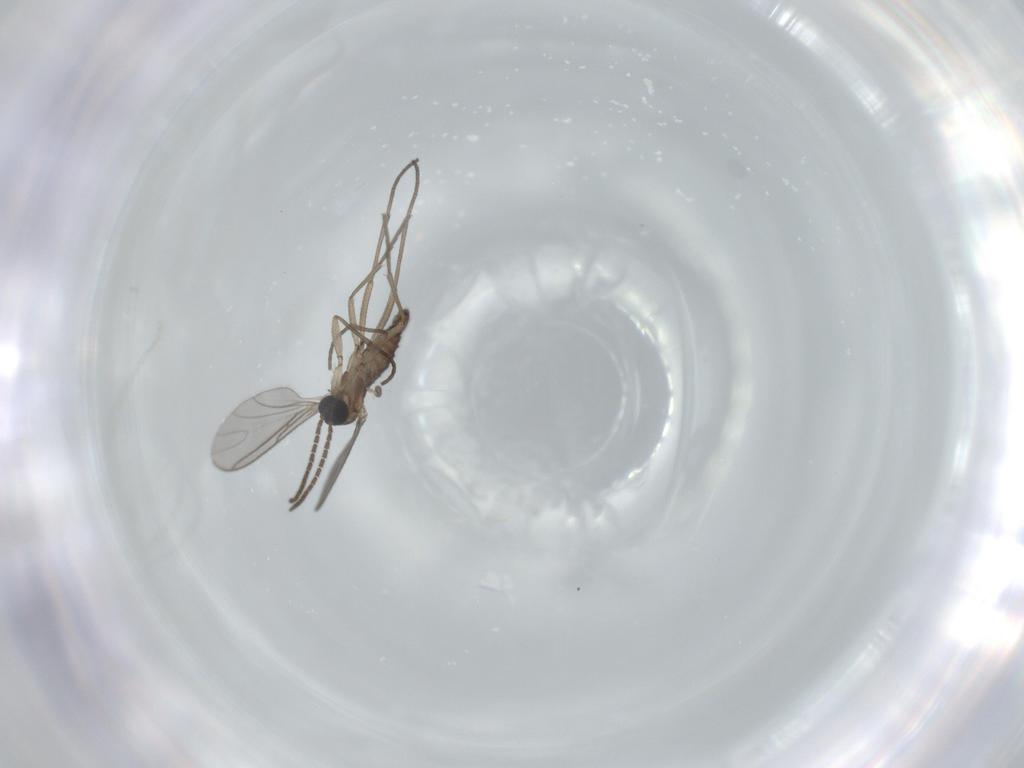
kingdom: Animalia
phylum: Arthropoda
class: Insecta
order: Diptera
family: Sciaridae
